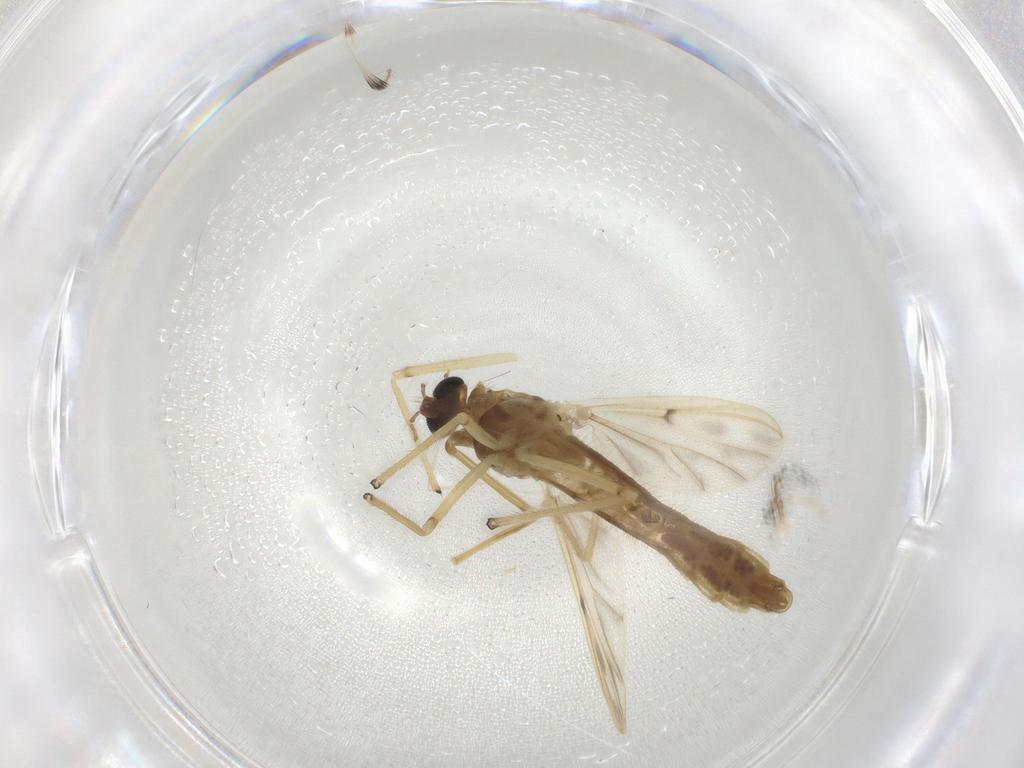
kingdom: Animalia
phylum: Arthropoda
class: Insecta
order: Diptera
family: Chironomidae
